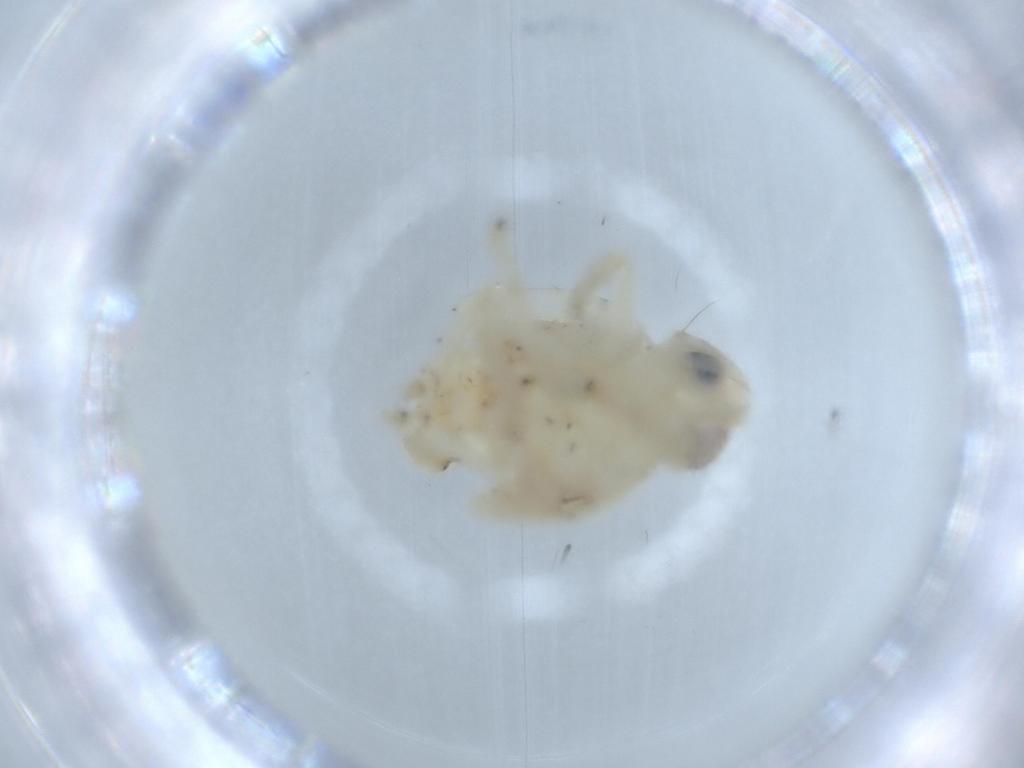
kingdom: Animalia
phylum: Arthropoda
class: Insecta
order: Hemiptera
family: Nogodinidae
